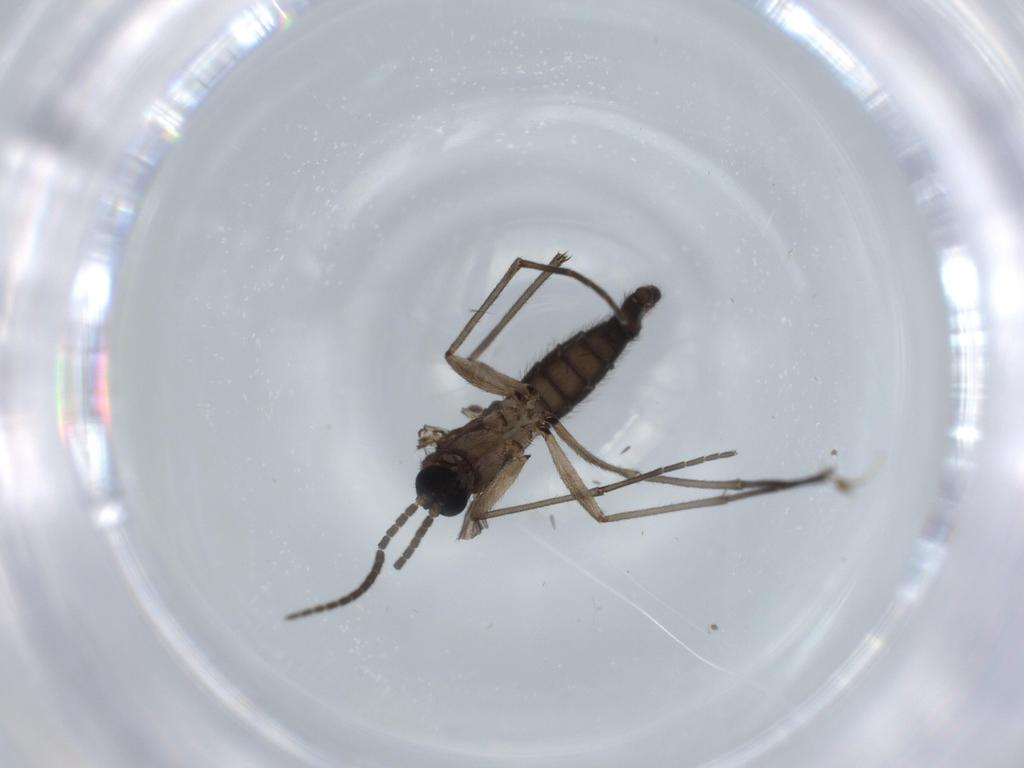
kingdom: Animalia
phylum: Arthropoda
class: Insecta
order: Diptera
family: Sciaridae
